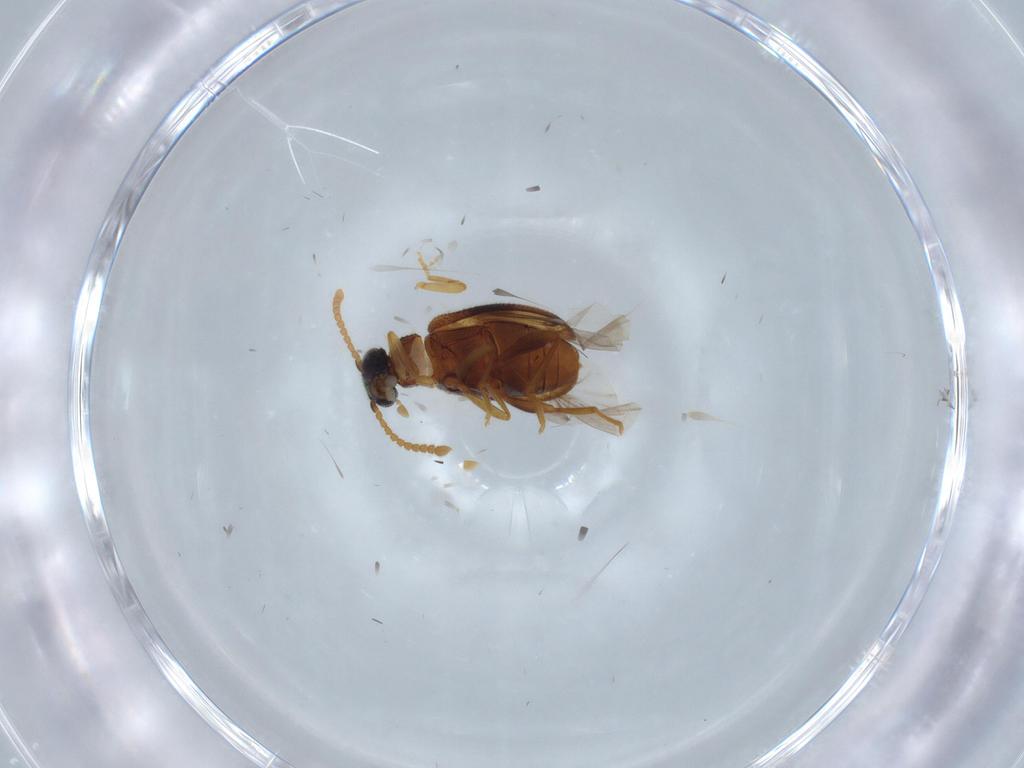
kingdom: Animalia
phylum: Arthropoda
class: Insecta
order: Coleoptera
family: Aderidae
